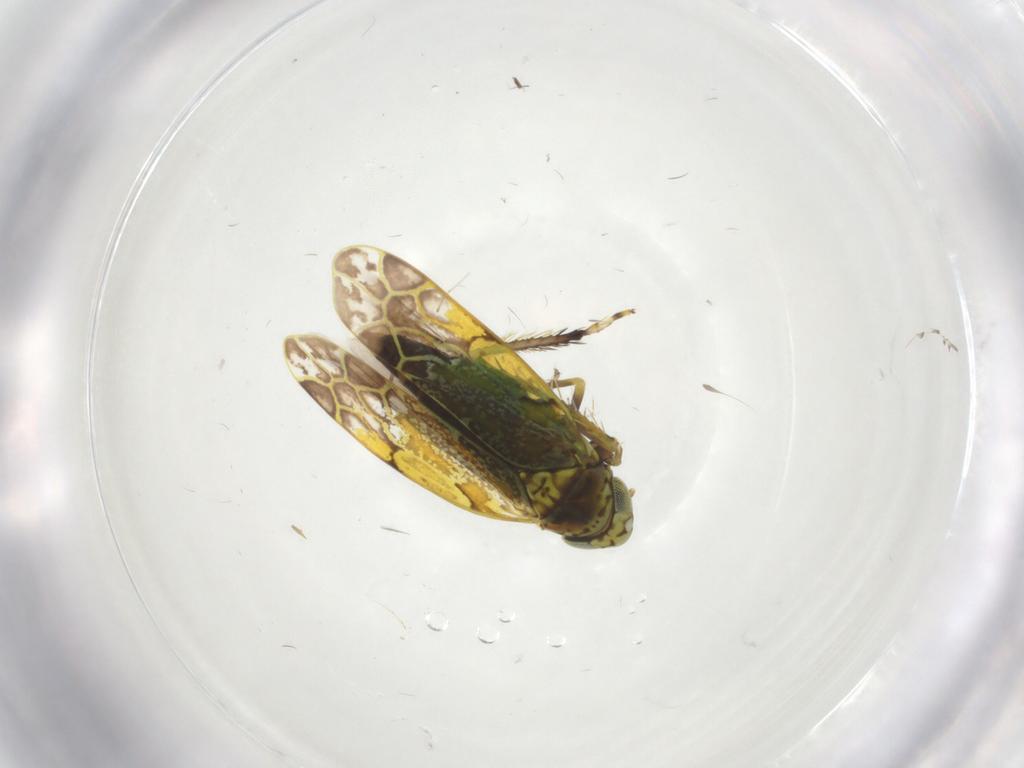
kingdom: Animalia
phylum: Arthropoda
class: Insecta
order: Hemiptera
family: Cicadellidae
